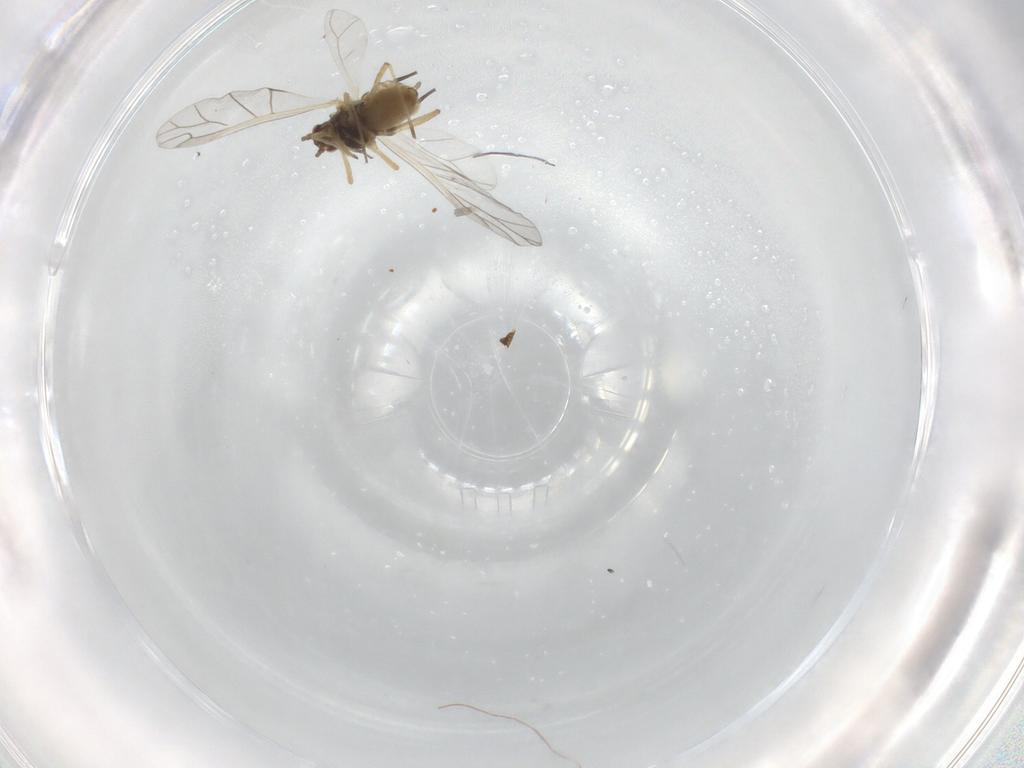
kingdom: Animalia
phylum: Arthropoda
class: Insecta
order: Hemiptera
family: Aphididae
